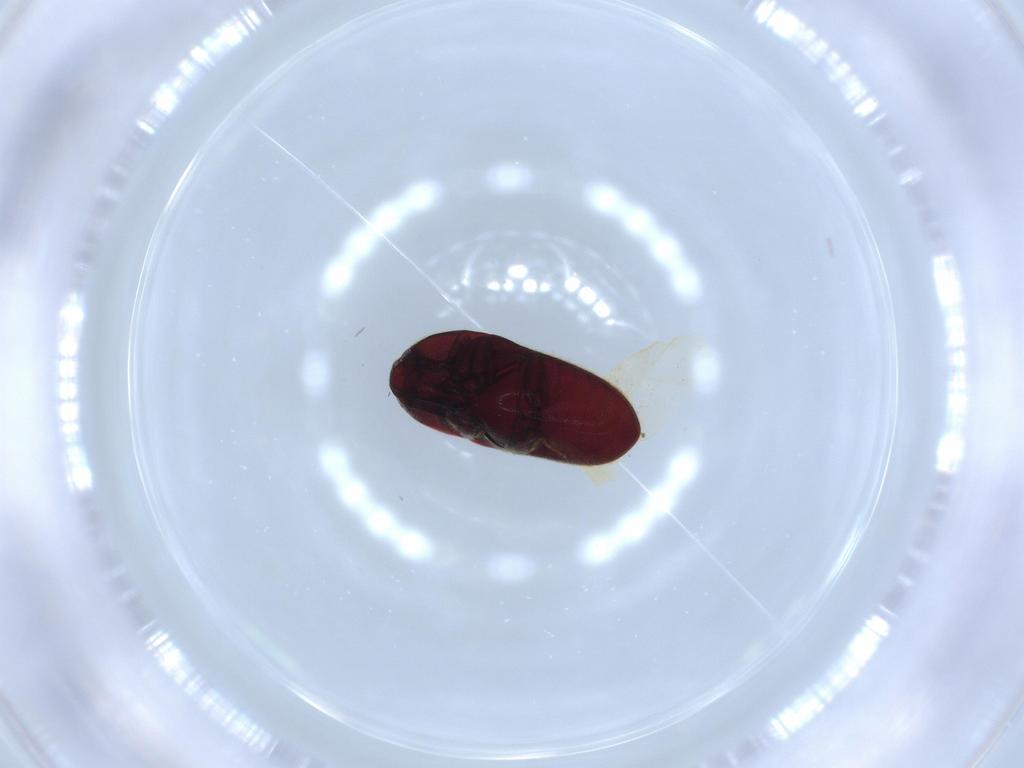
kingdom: Animalia
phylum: Arthropoda
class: Insecta
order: Coleoptera
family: Throscidae
